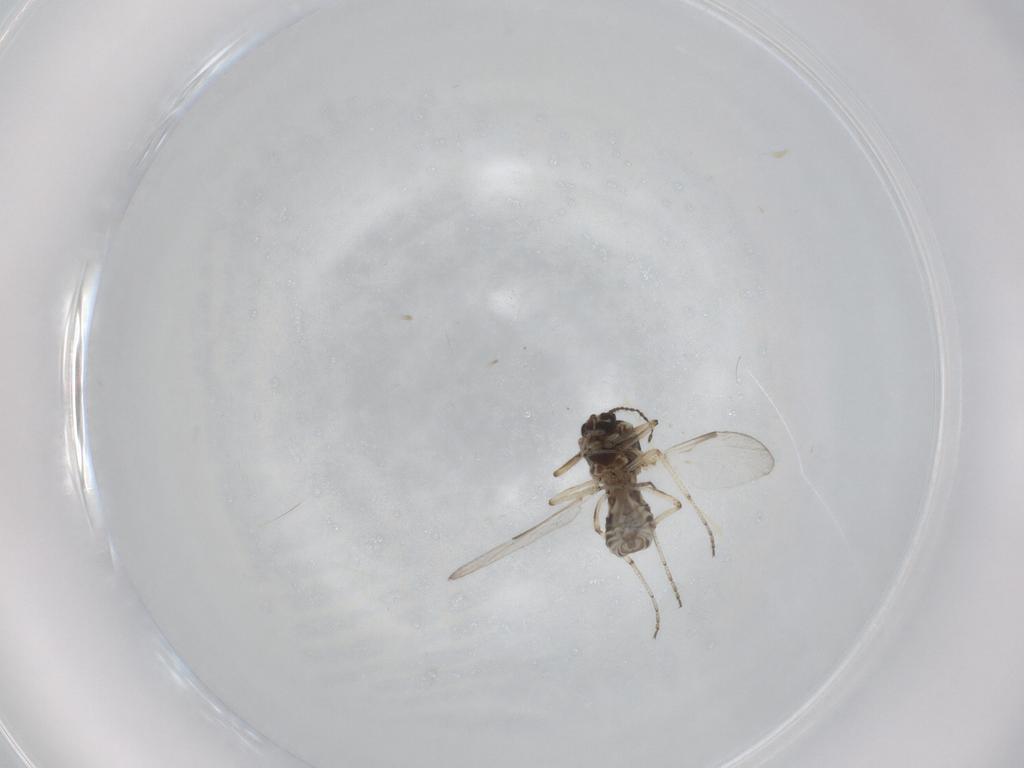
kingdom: Animalia
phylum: Arthropoda
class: Insecta
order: Diptera
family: Ceratopogonidae
